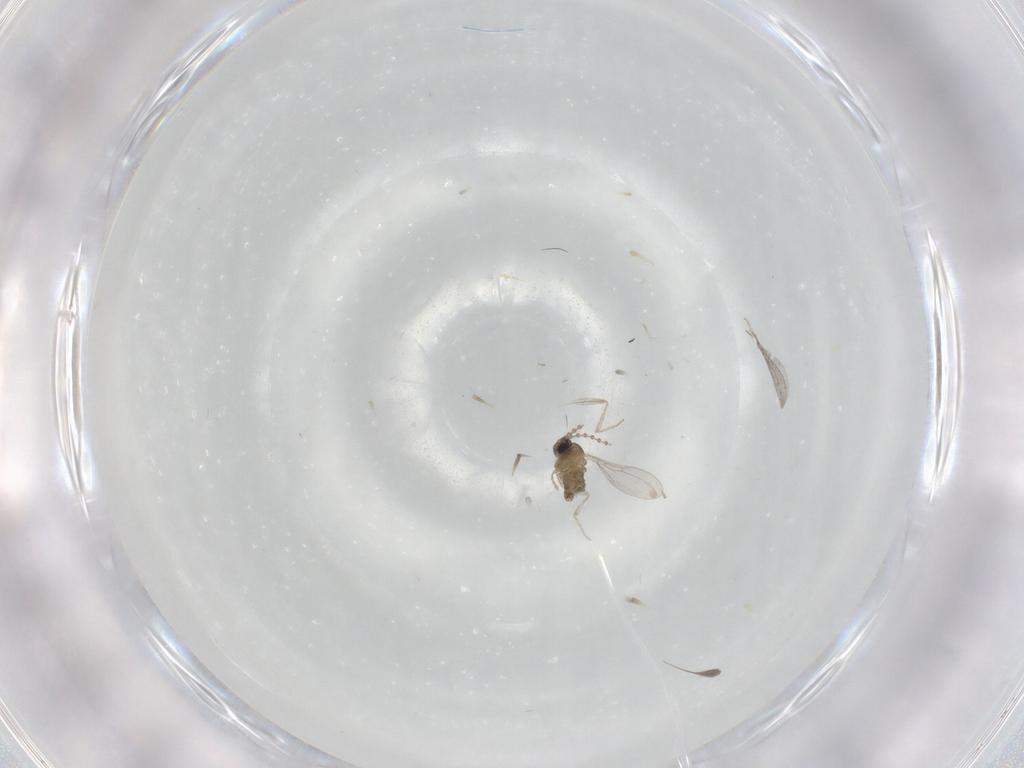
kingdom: Animalia
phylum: Arthropoda
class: Insecta
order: Diptera
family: Cecidomyiidae
